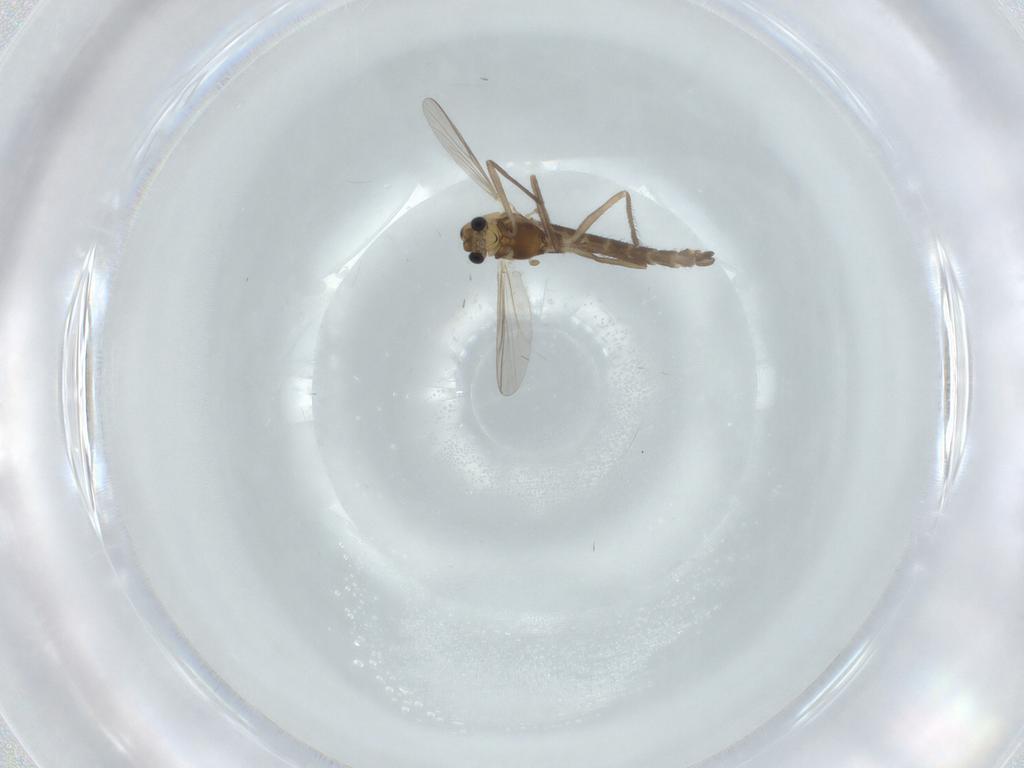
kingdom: Animalia
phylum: Arthropoda
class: Insecta
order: Diptera
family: Chironomidae
